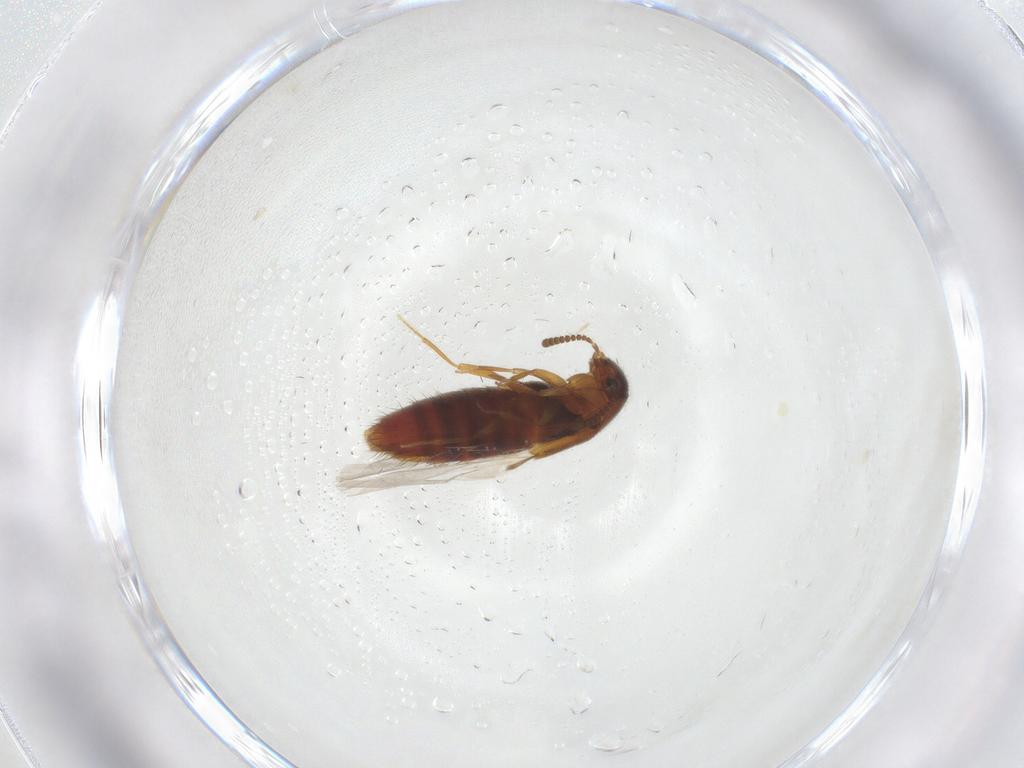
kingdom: Animalia
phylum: Arthropoda
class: Insecta
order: Coleoptera
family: Staphylinidae
